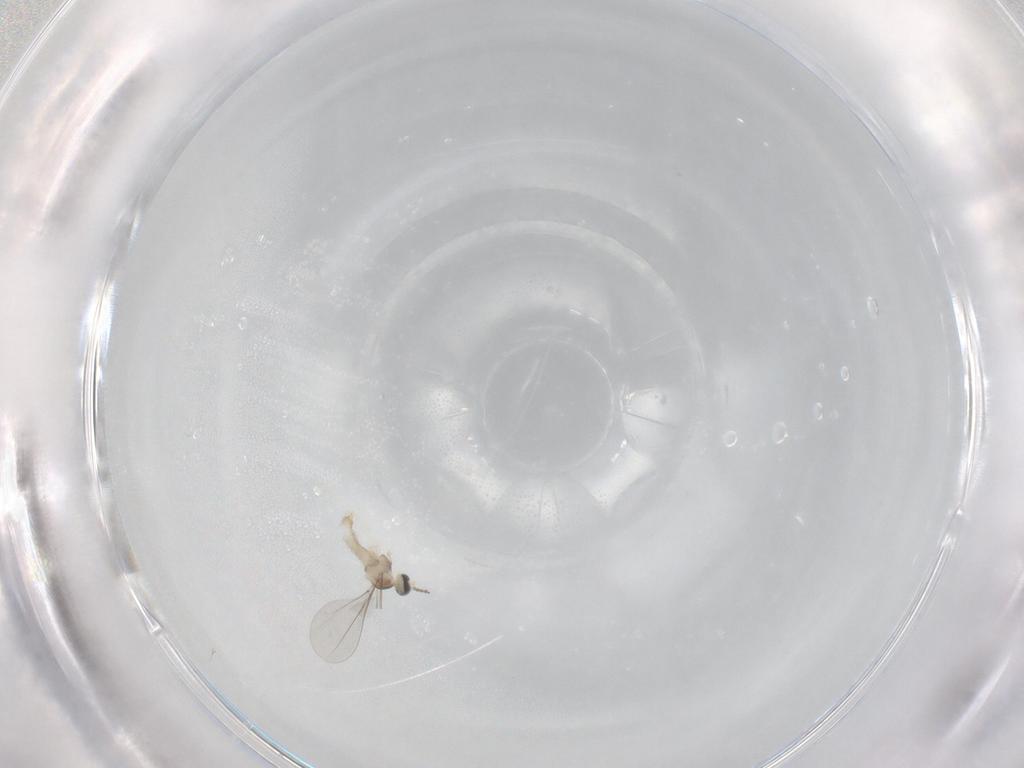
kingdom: Animalia
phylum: Arthropoda
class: Insecta
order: Diptera
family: Cecidomyiidae
